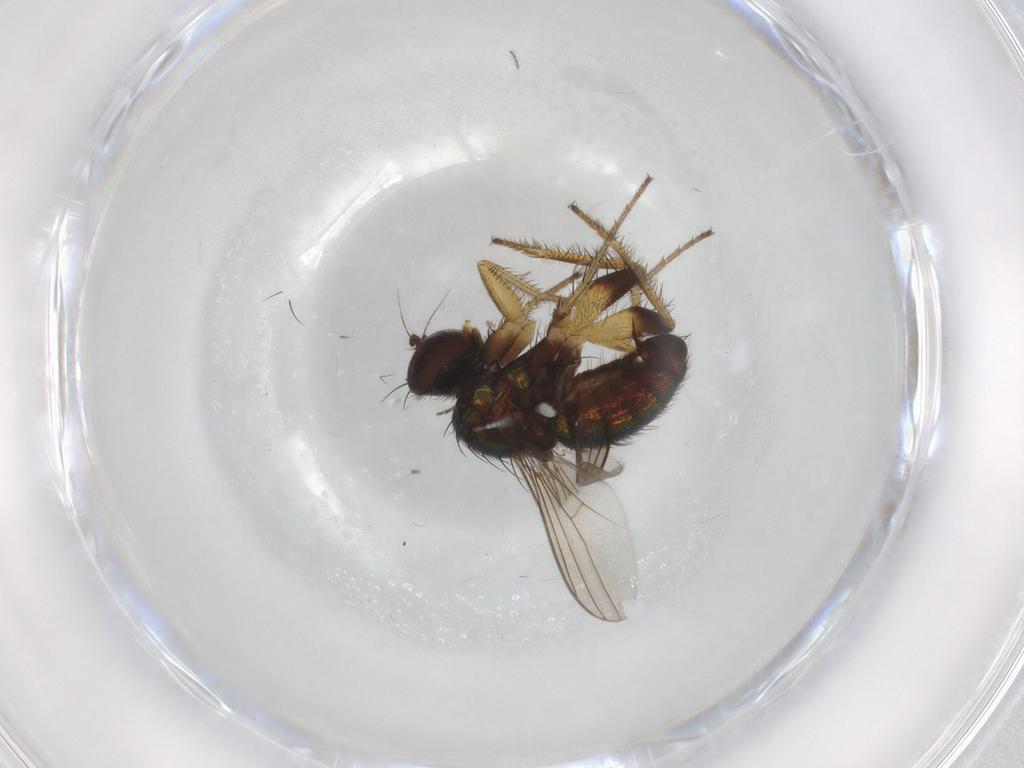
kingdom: Animalia
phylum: Arthropoda
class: Insecta
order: Diptera
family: Dolichopodidae
